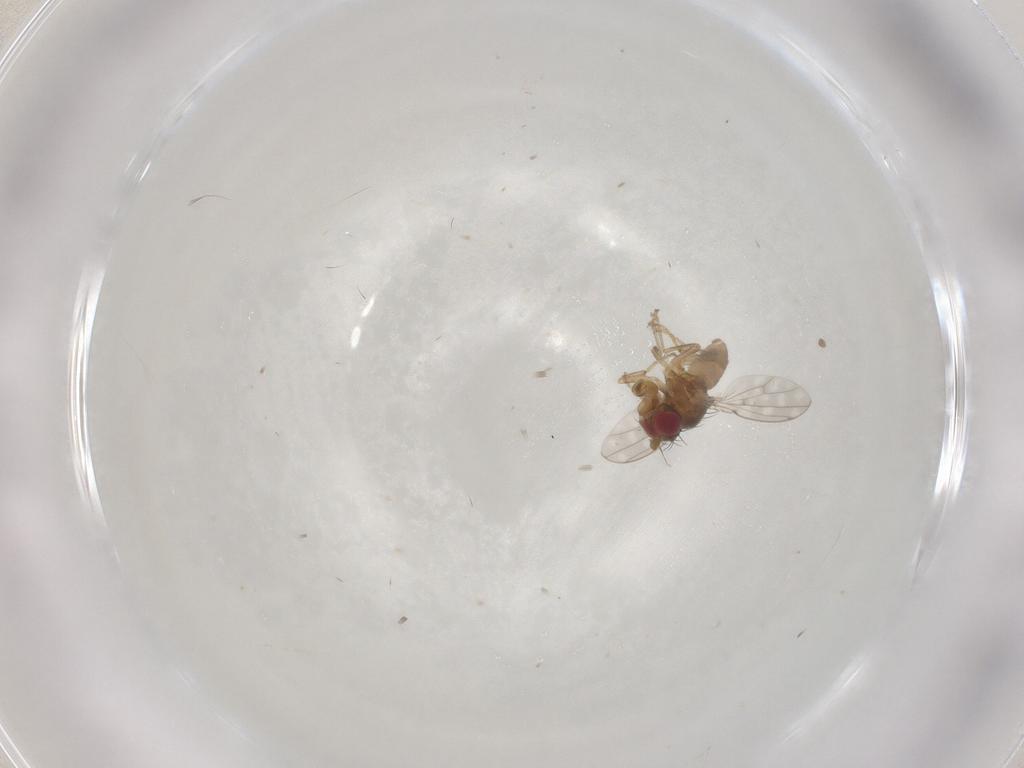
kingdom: Animalia
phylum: Arthropoda
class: Insecta
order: Diptera
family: Ephydridae
